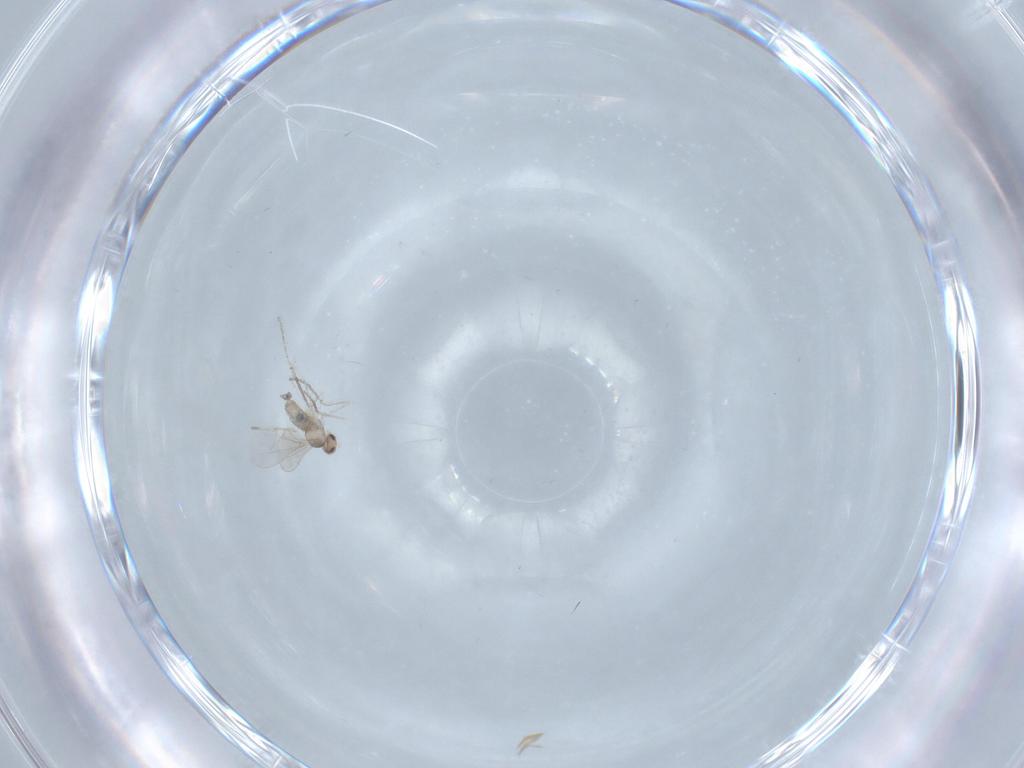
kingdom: Animalia
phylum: Arthropoda
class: Insecta
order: Diptera
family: Cecidomyiidae
